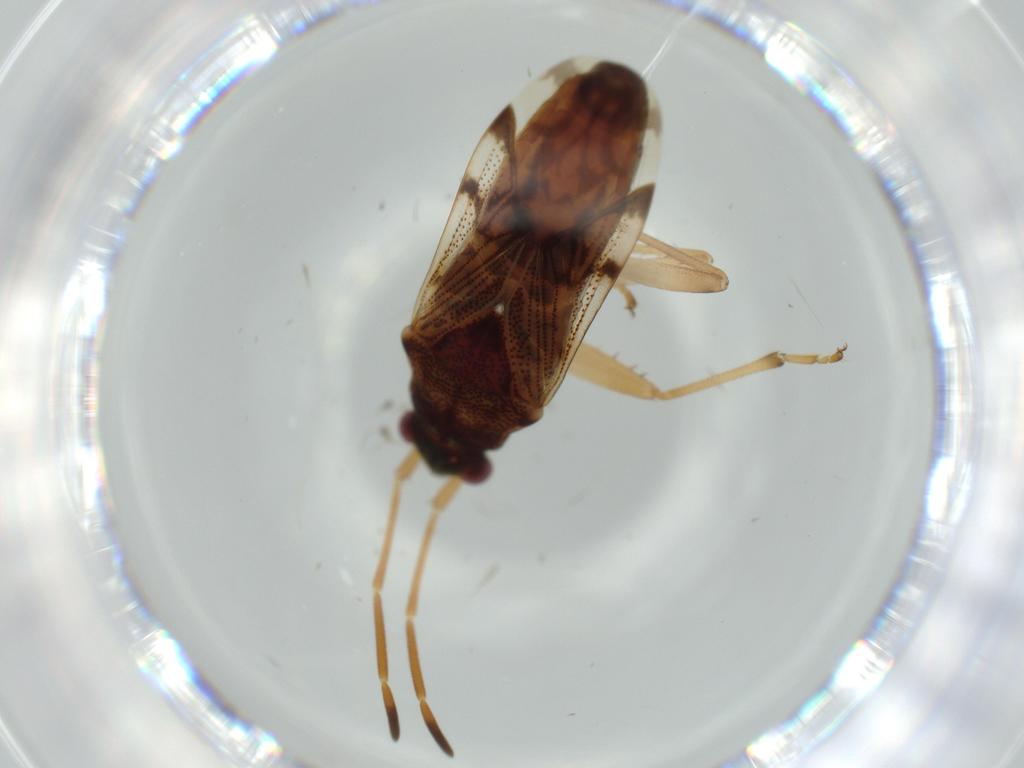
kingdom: Animalia
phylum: Arthropoda
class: Insecta
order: Hemiptera
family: Rhyparochromidae
